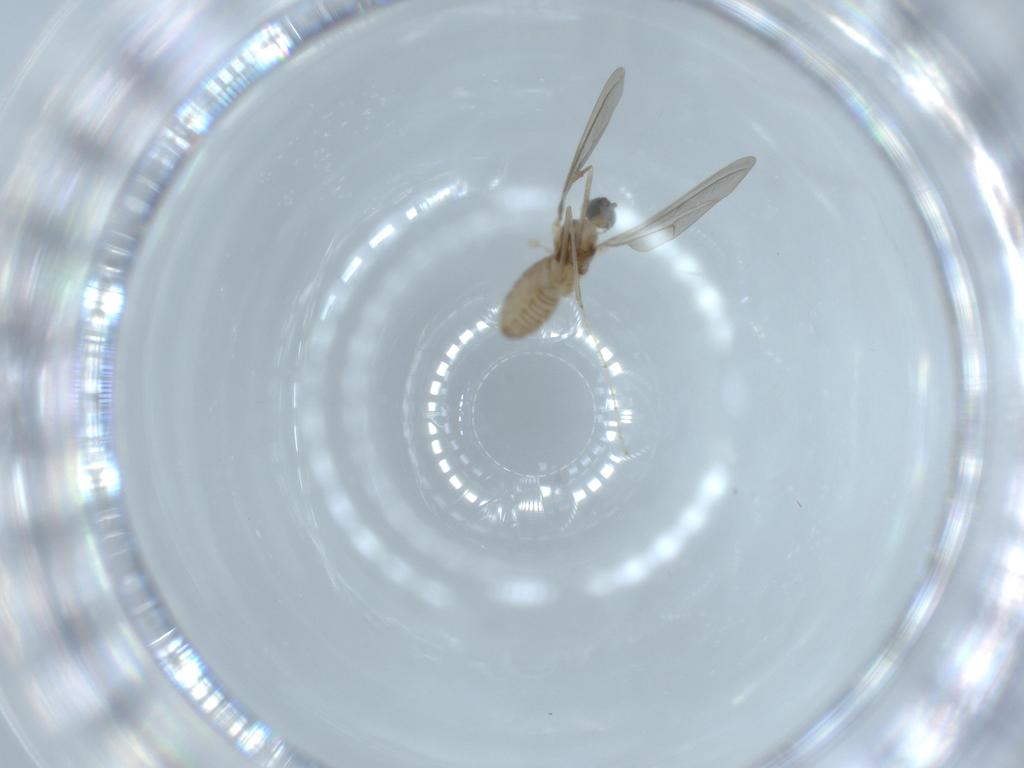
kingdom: Animalia
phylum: Arthropoda
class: Insecta
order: Diptera
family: Cecidomyiidae
